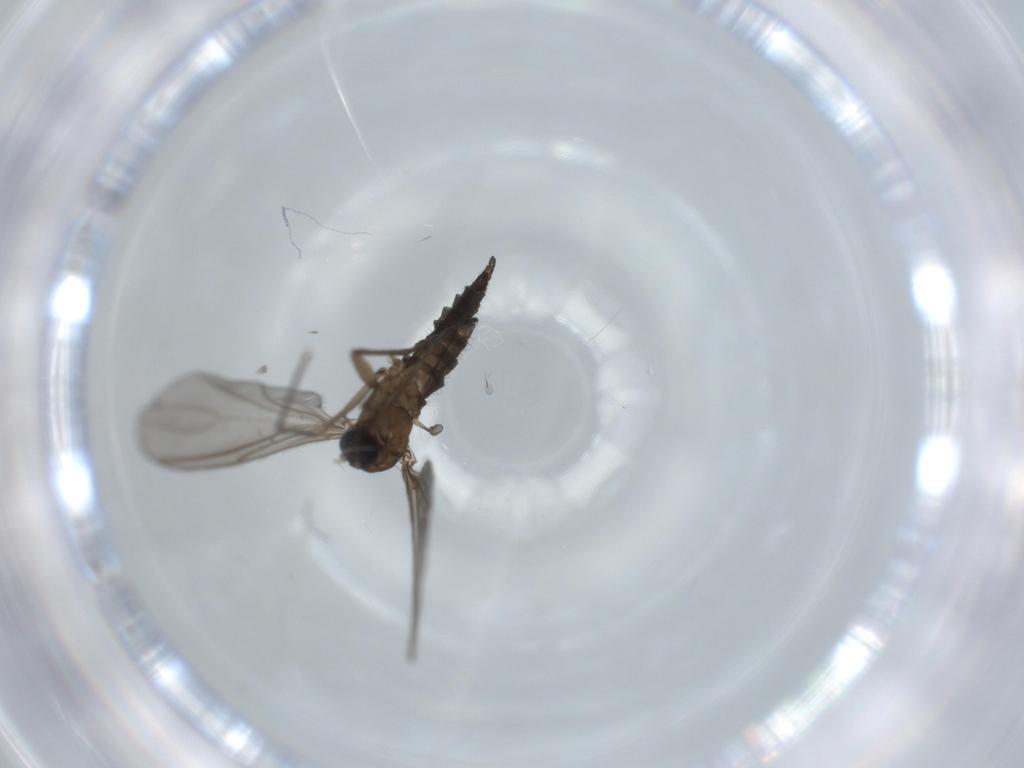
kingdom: Animalia
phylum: Arthropoda
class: Insecta
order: Diptera
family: Sciaridae
